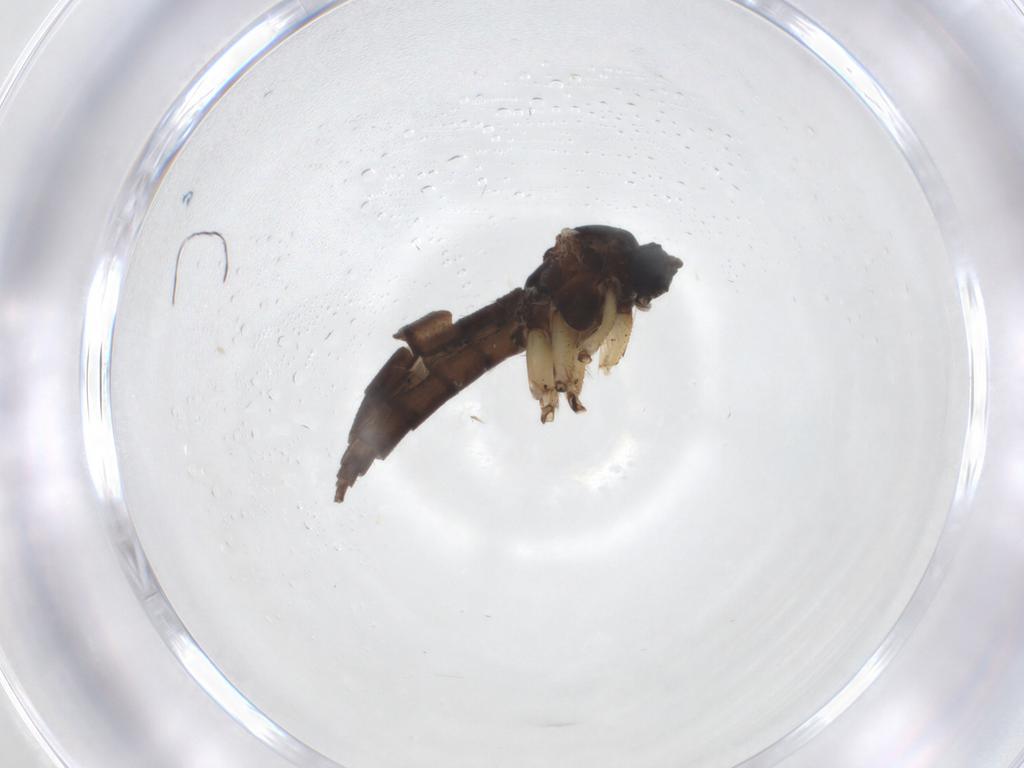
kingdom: Animalia
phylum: Arthropoda
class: Insecta
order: Diptera
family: Sciaridae
